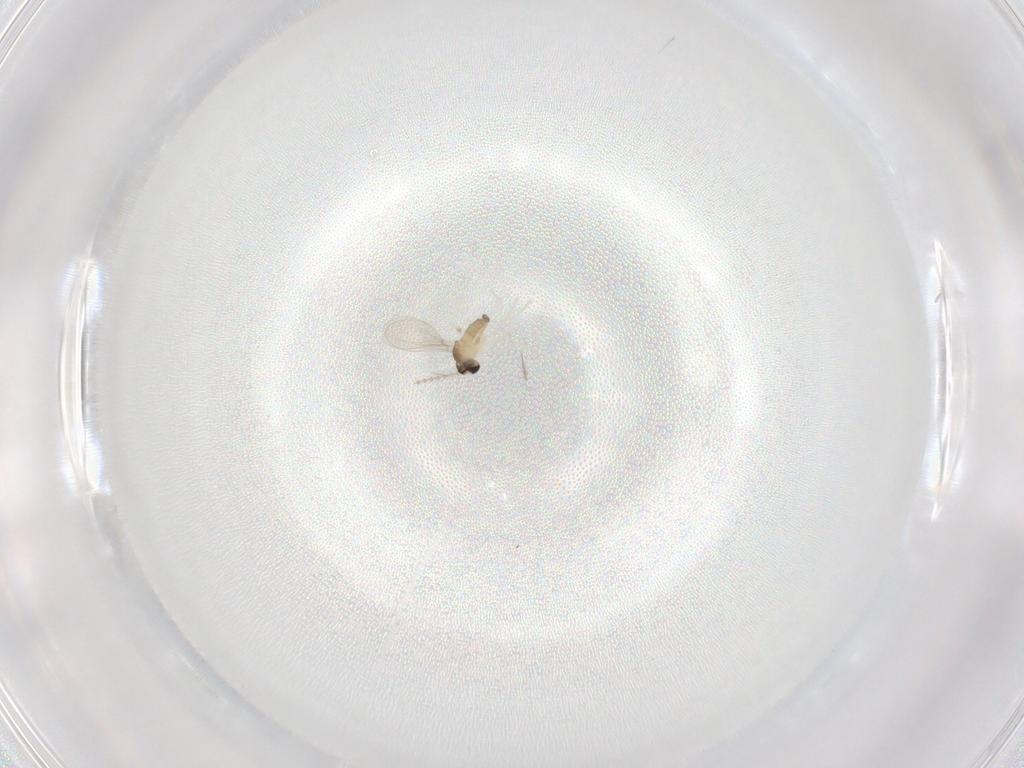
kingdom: Animalia
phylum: Arthropoda
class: Insecta
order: Diptera
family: Cecidomyiidae
